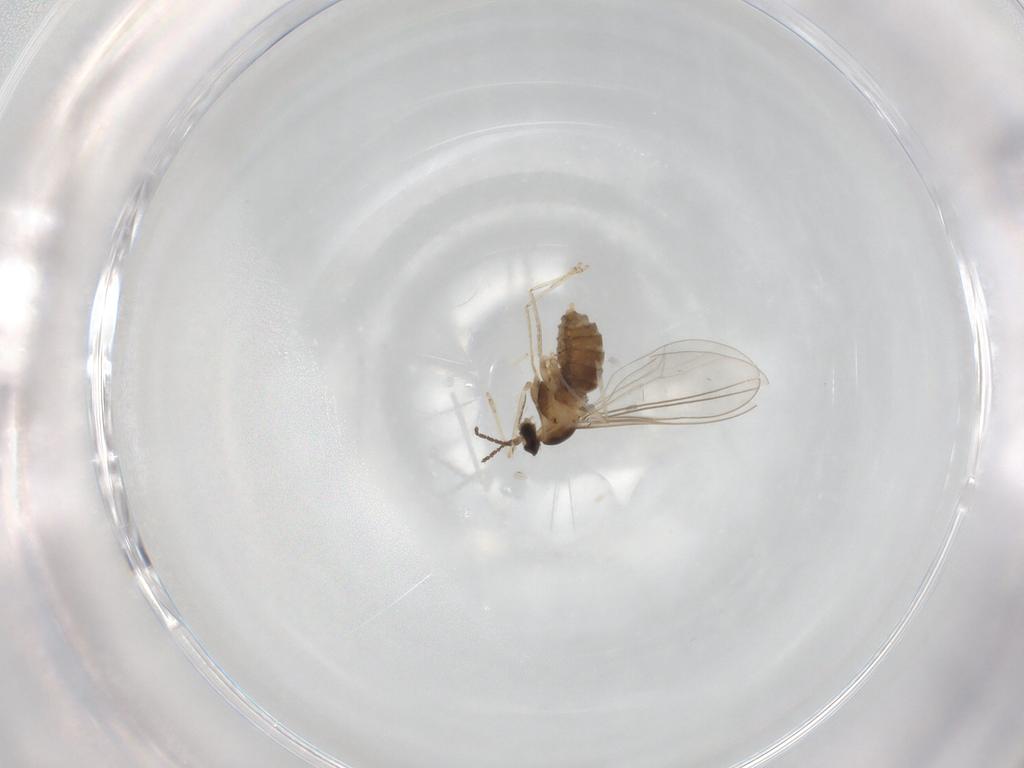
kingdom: Animalia
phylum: Arthropoda
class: Insecta
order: Diptera
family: Cecidomyiidae
